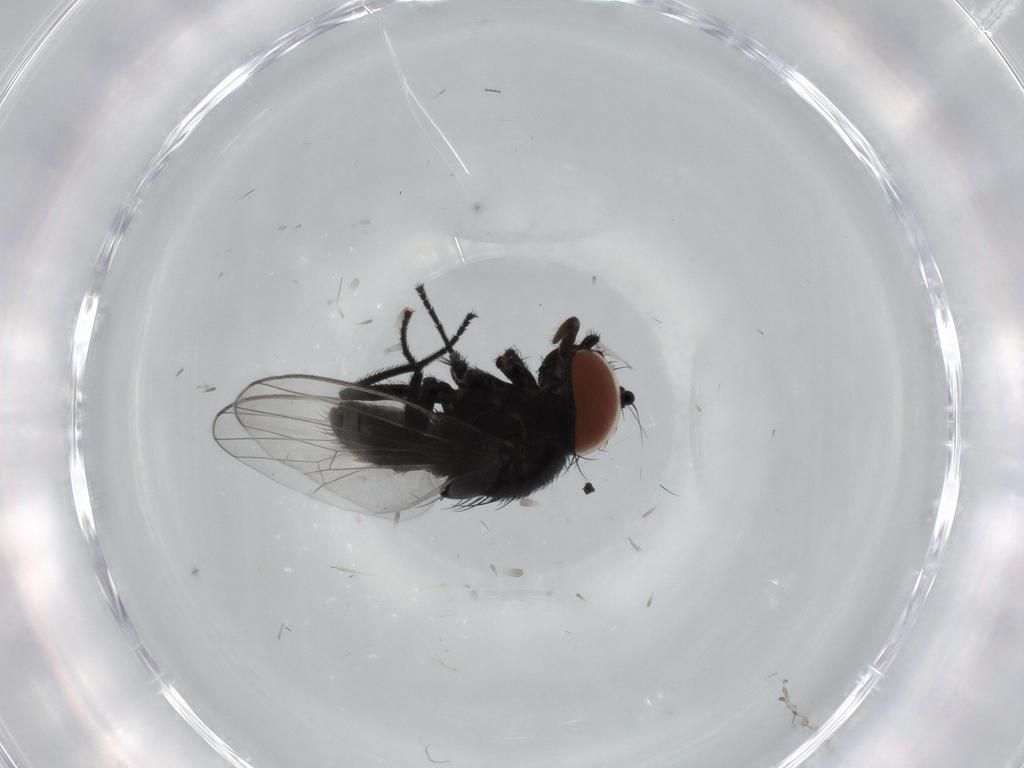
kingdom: Animalia
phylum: Arthropoda
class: Insecta
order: Diptera
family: Milichiidae
